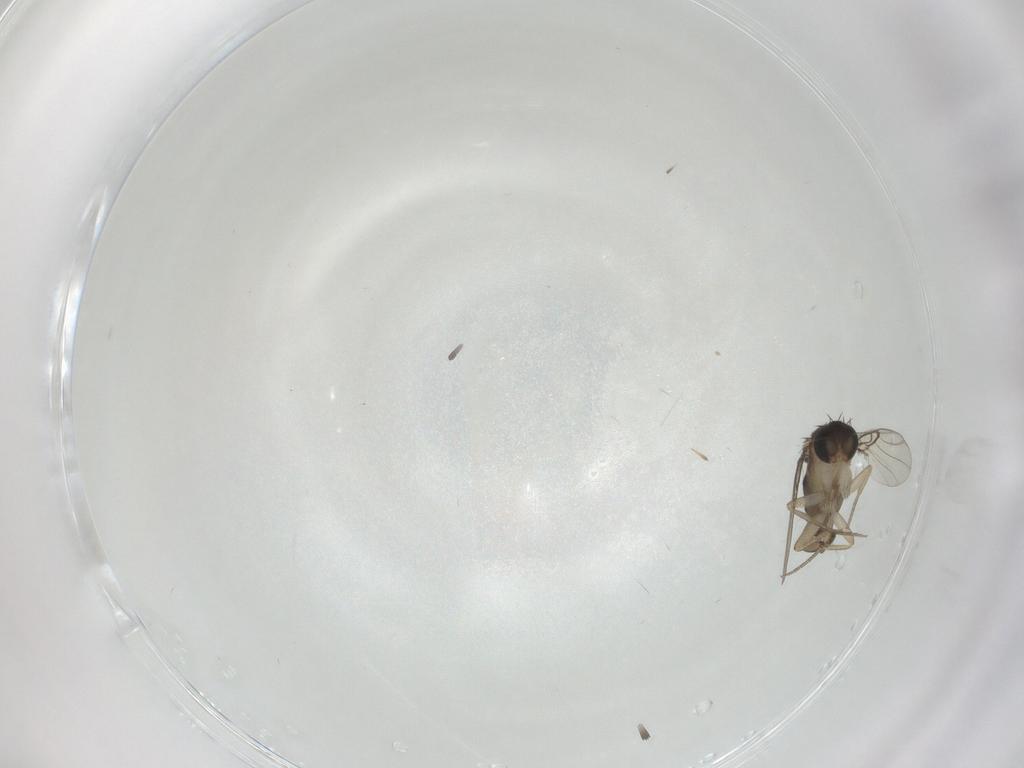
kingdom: Animalia
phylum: Arthropoda
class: Insecta
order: Diptera
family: Chironomidae
